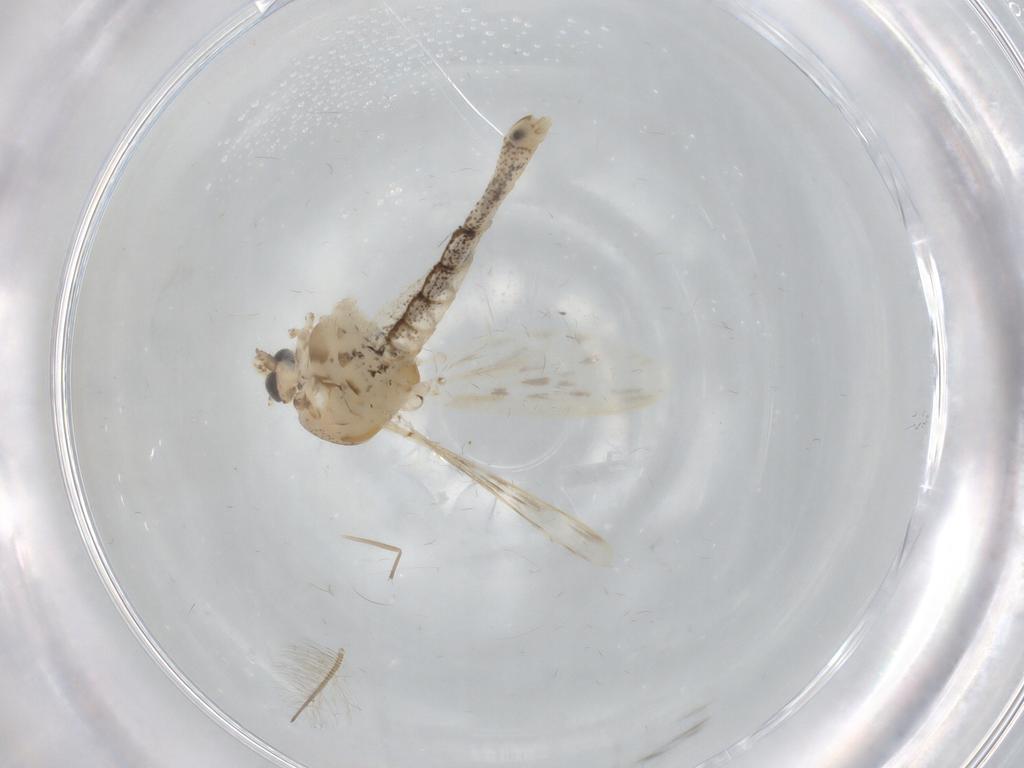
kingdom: Animalia
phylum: Arthropoda
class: Insecta
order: Diptera
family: Chaoboridae
